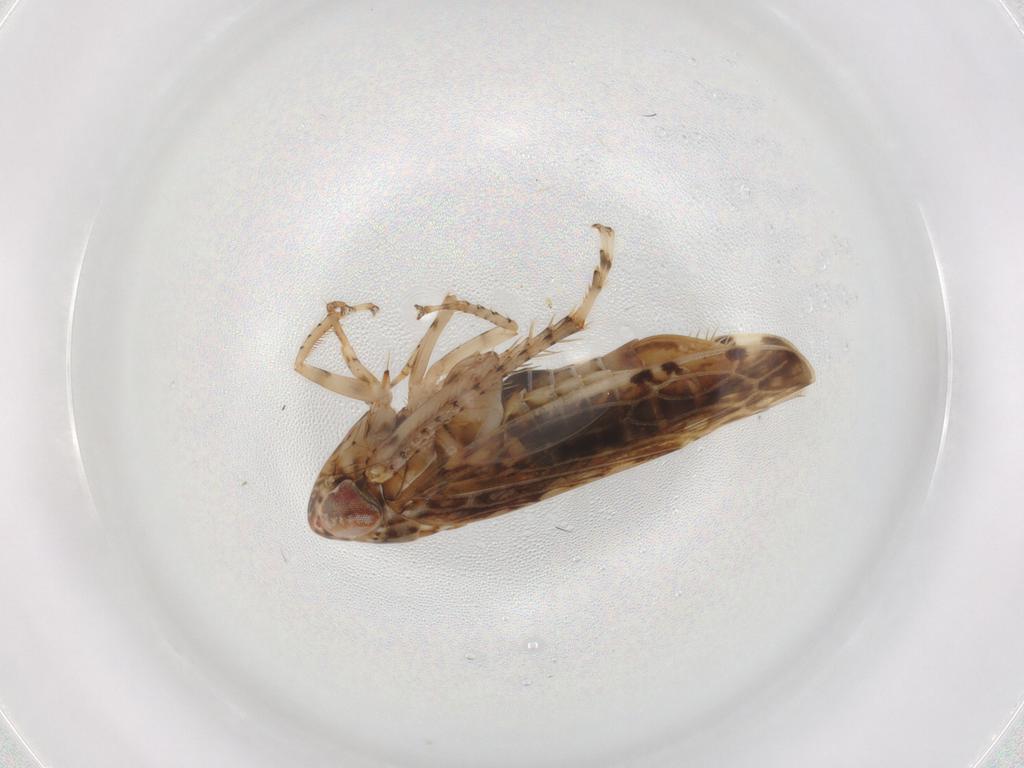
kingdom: Animalia
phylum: Arthropoda
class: Insecta
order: Hemiptera
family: Cicadellidae
